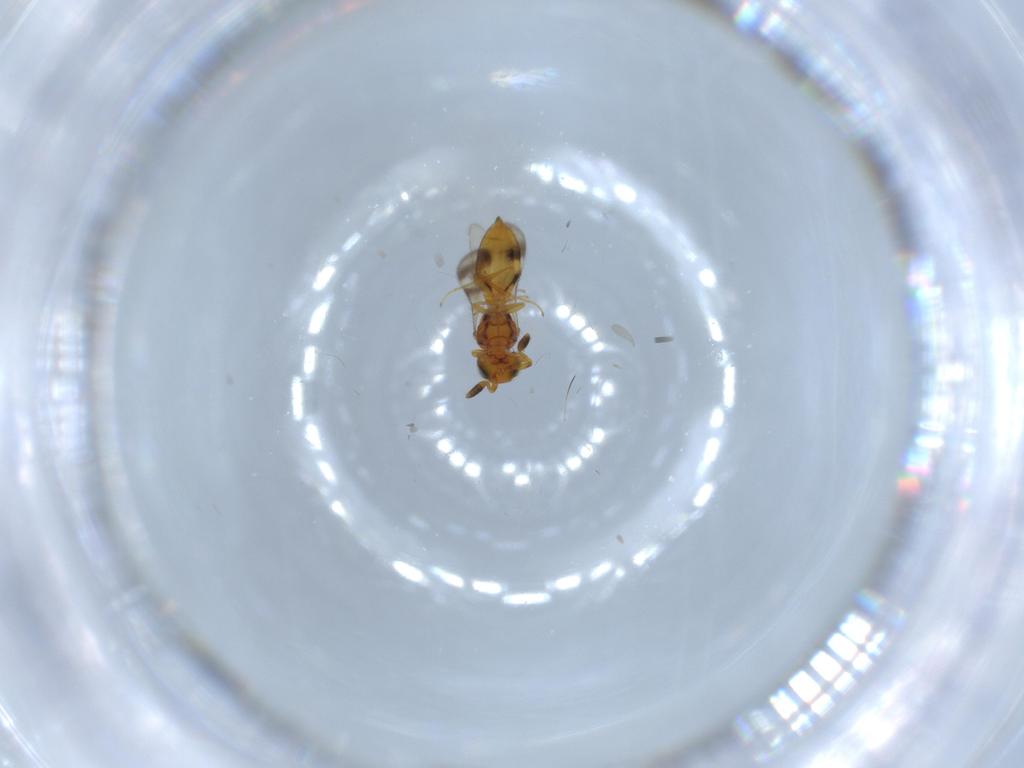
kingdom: Animalia
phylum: Arthropoda
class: Insecta
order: Hymenoptera
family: Scelionidae
